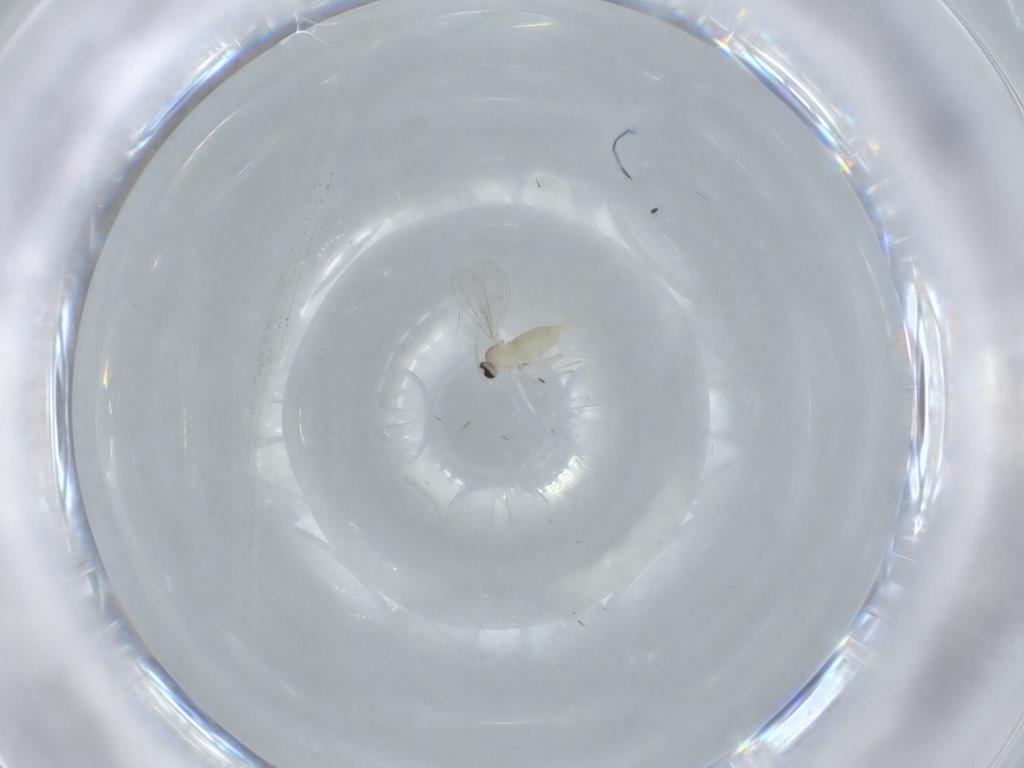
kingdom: Animalia
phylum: Arthropoda
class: Insecta
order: Diptera
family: Cecidomyiidae
